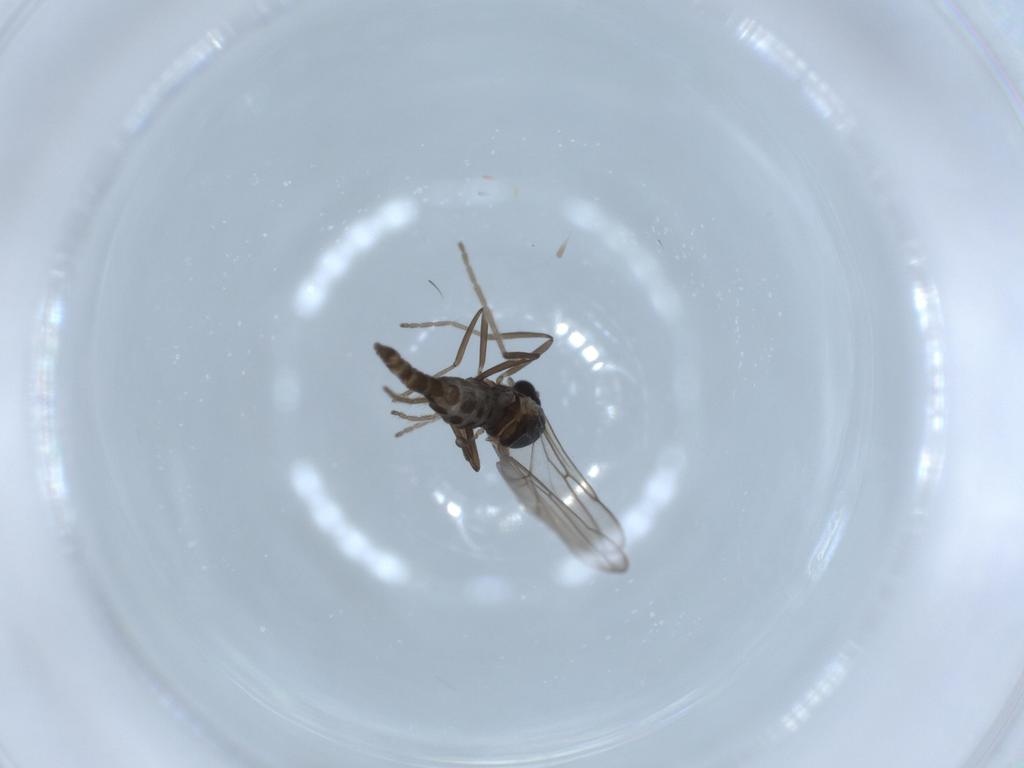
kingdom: Animalia
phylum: Arthropoda
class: Insecta
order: Diptera
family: Cecidomyiidae
